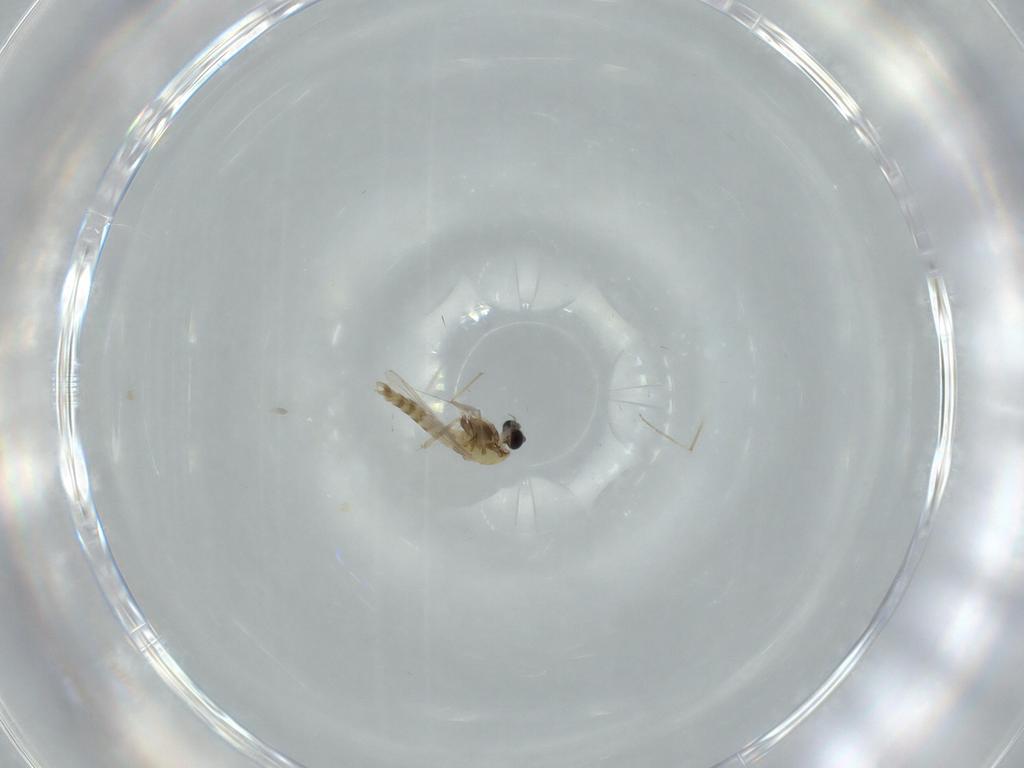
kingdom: Animalia
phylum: Arthropoda
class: Insecta
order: Diptera
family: Chironomidae
